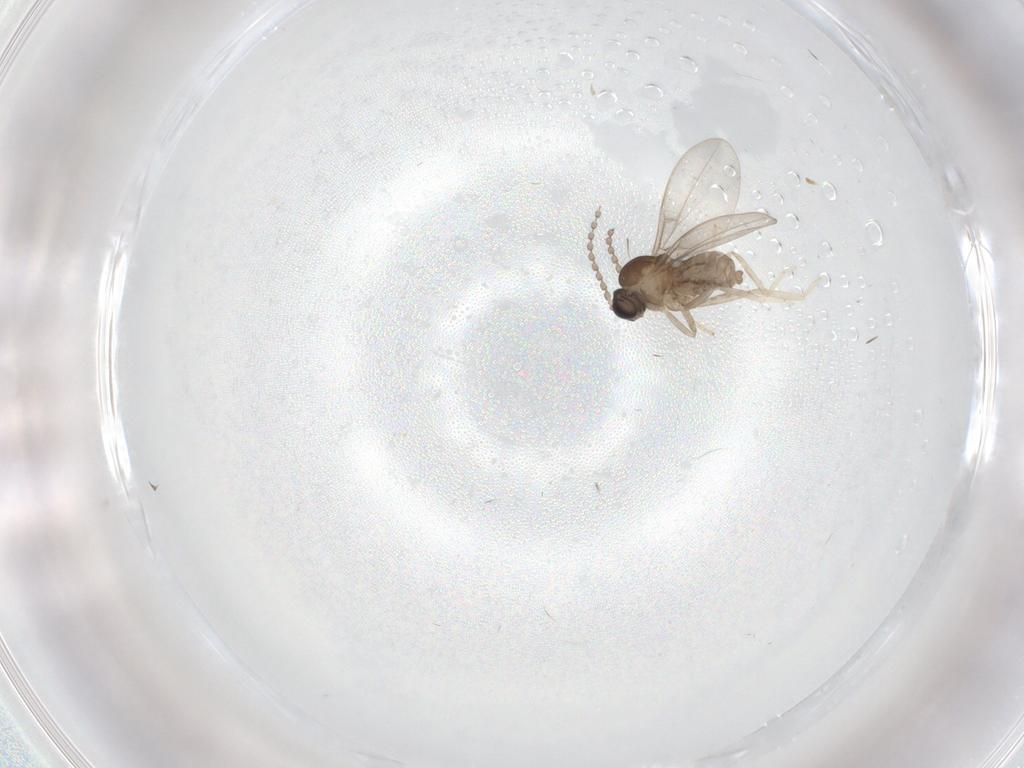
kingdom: Animalia
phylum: Arthropoda
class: Insecta
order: Diptera
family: Cecidomyiidae
